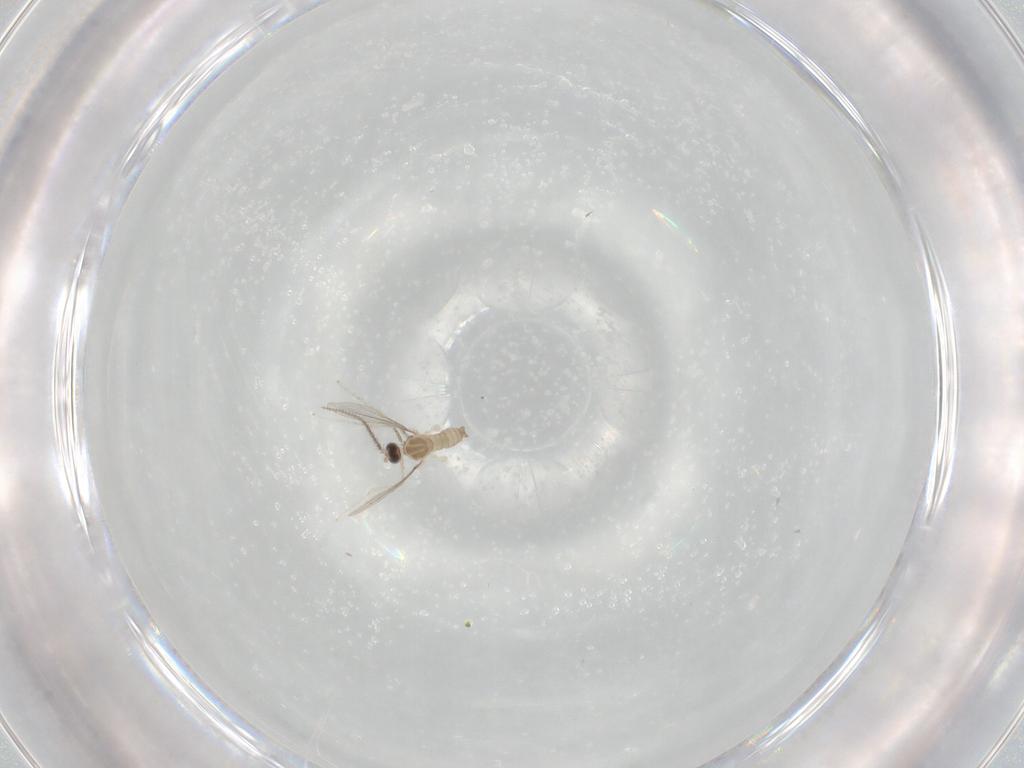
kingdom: Animalia
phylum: Arthropoda
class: Insecta
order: Diptera
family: Cecidomyiidae
